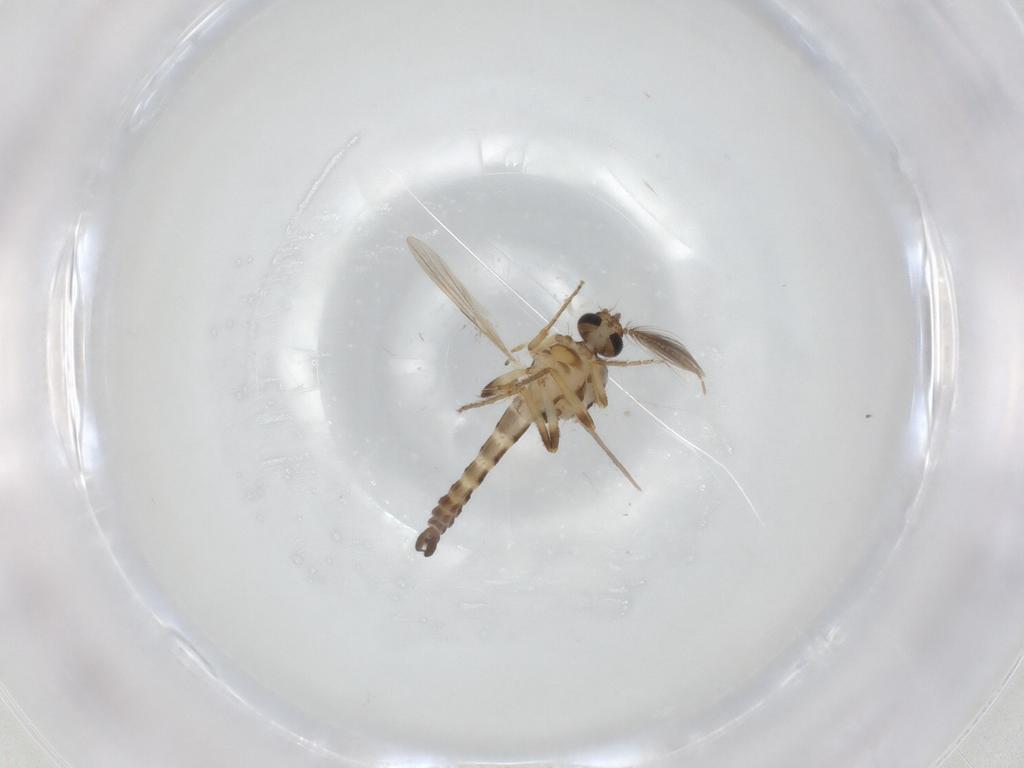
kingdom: Animalia
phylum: Arthropoda
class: Insecta
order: Diptera
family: Ceratopogonidae
